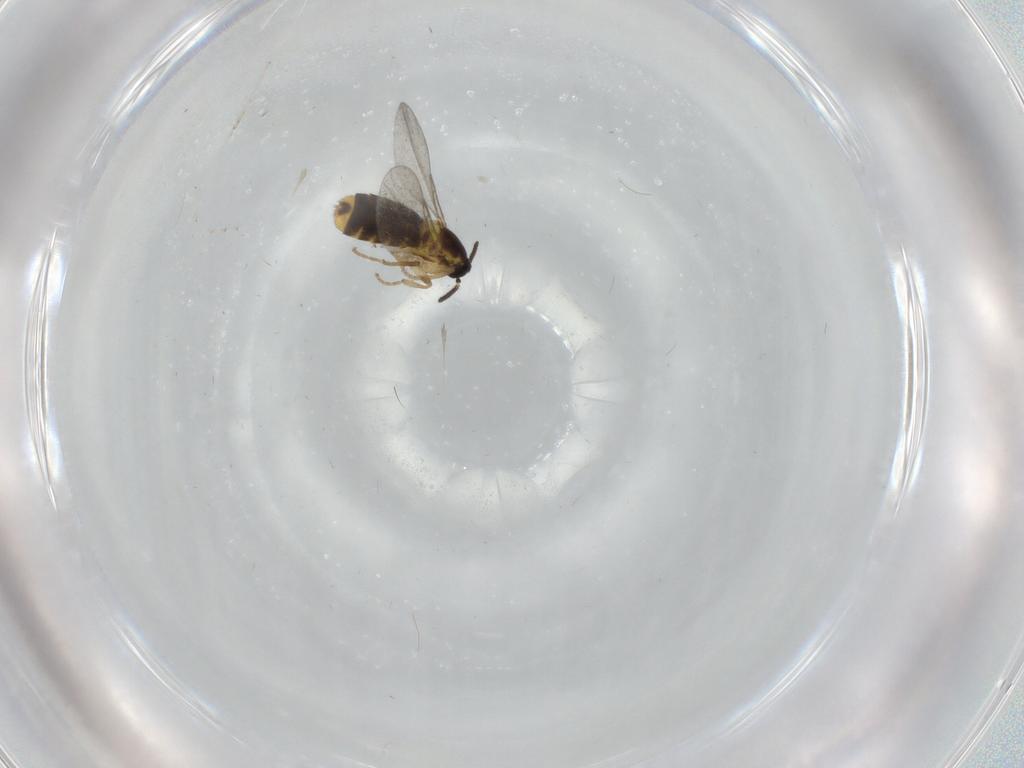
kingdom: Animalia
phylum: Arthropoda
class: Insecta
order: Diptera
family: Scatopsidae
